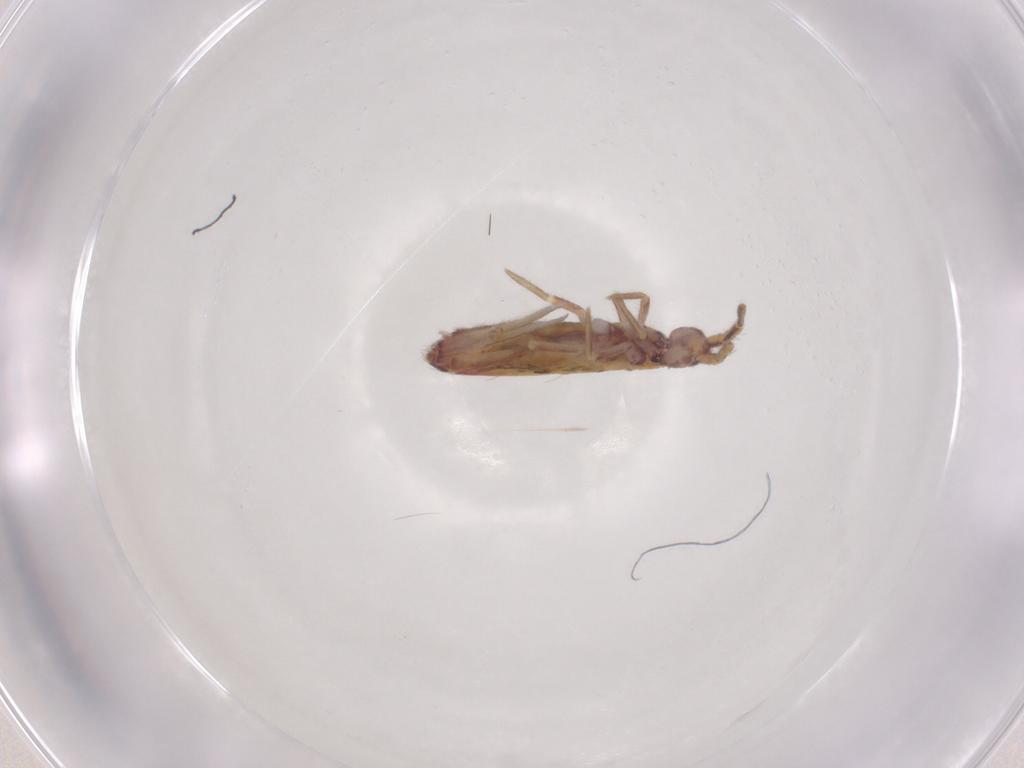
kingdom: Animalia
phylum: Arthropoda
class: Collembola
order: Entomobryomorpha
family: Entomobryidae
